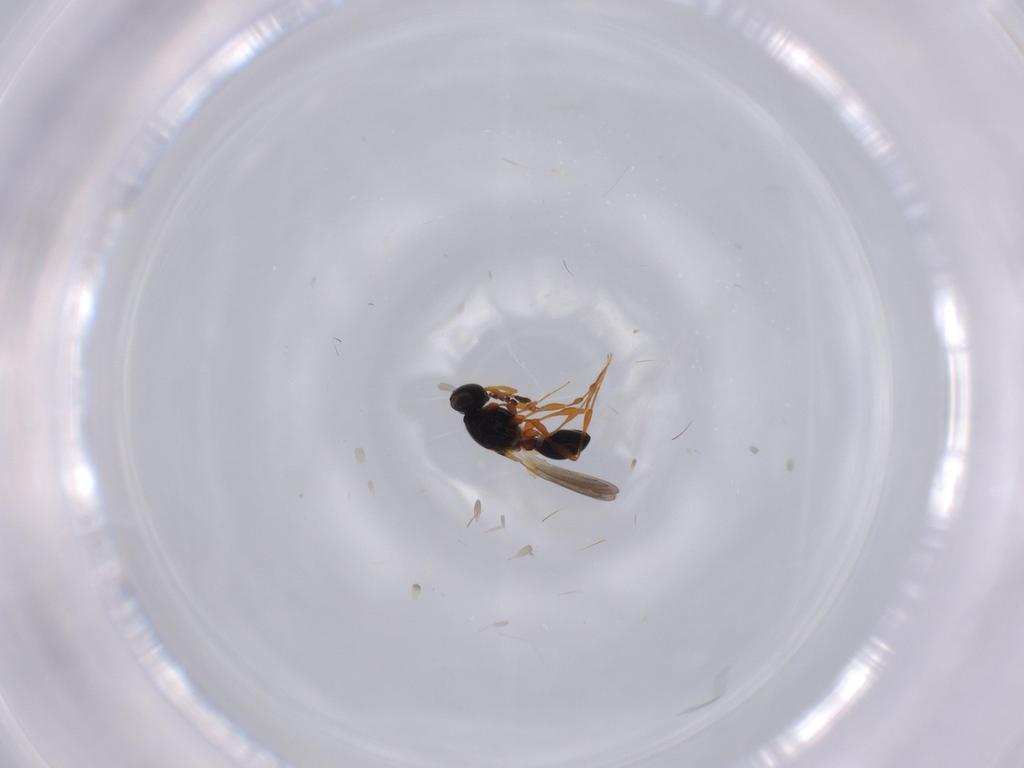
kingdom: Animalia
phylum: Arthropoda
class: Insecta
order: Hymenoptera
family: Platygastridae
